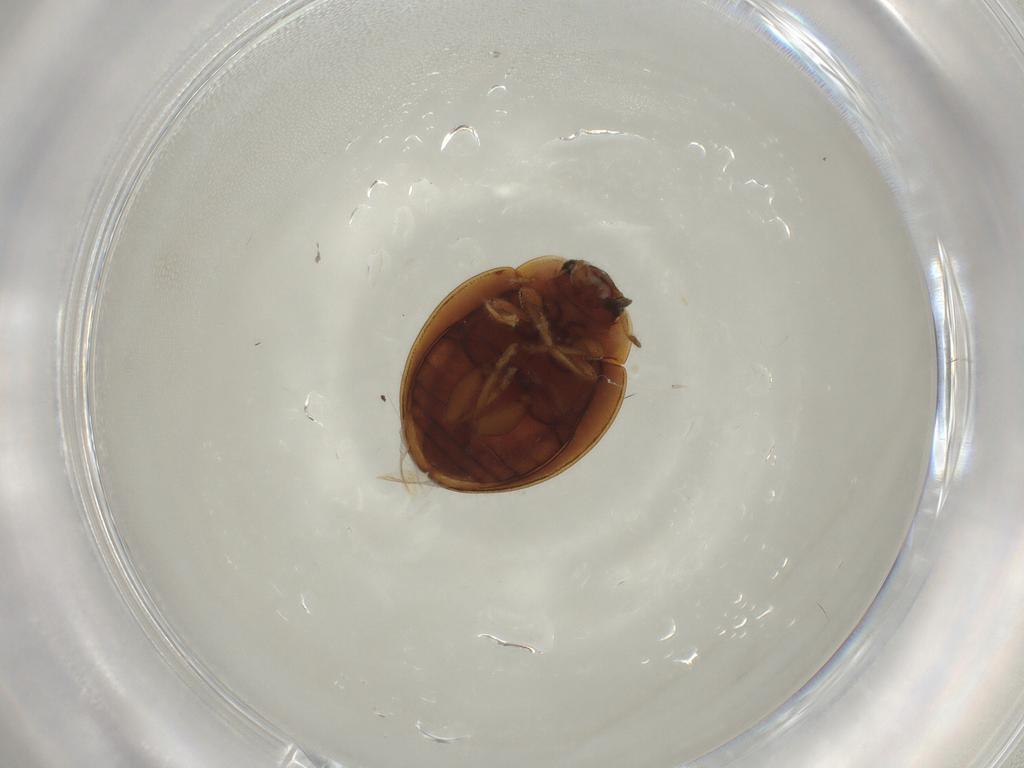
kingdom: Animalia
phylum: Arthropoda
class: Insecta
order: Coleoptera
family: Coccinellidae
